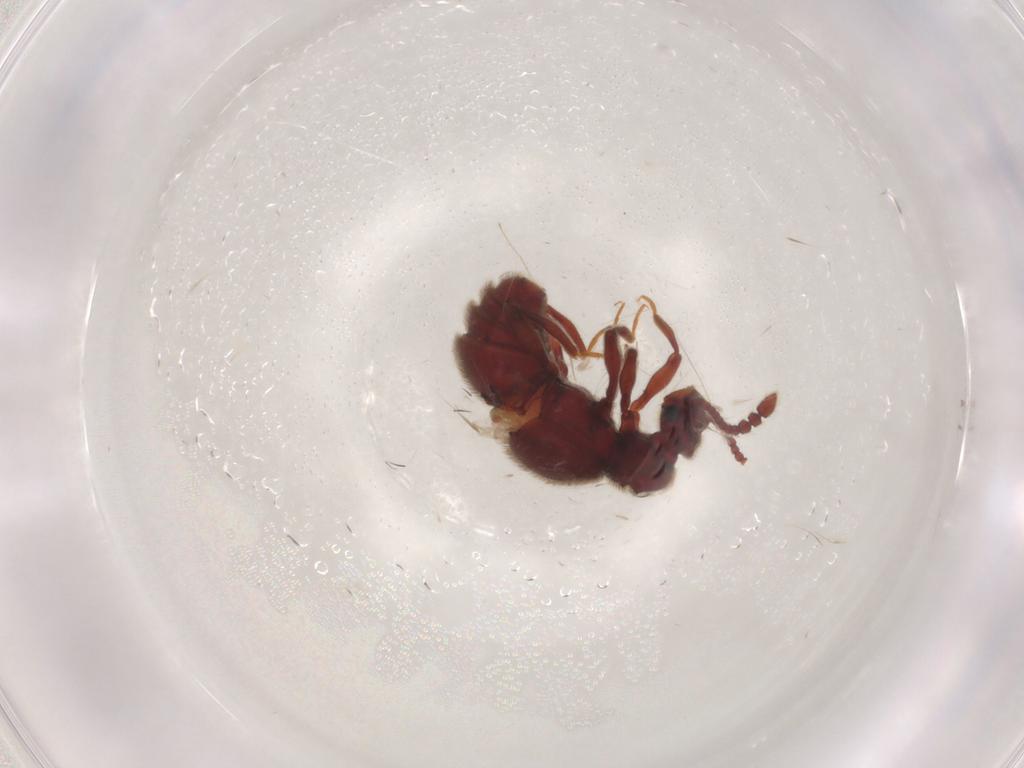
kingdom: Animalia
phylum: Arthropoda
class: Insecta
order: Coleoptera
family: Staphylinidae
